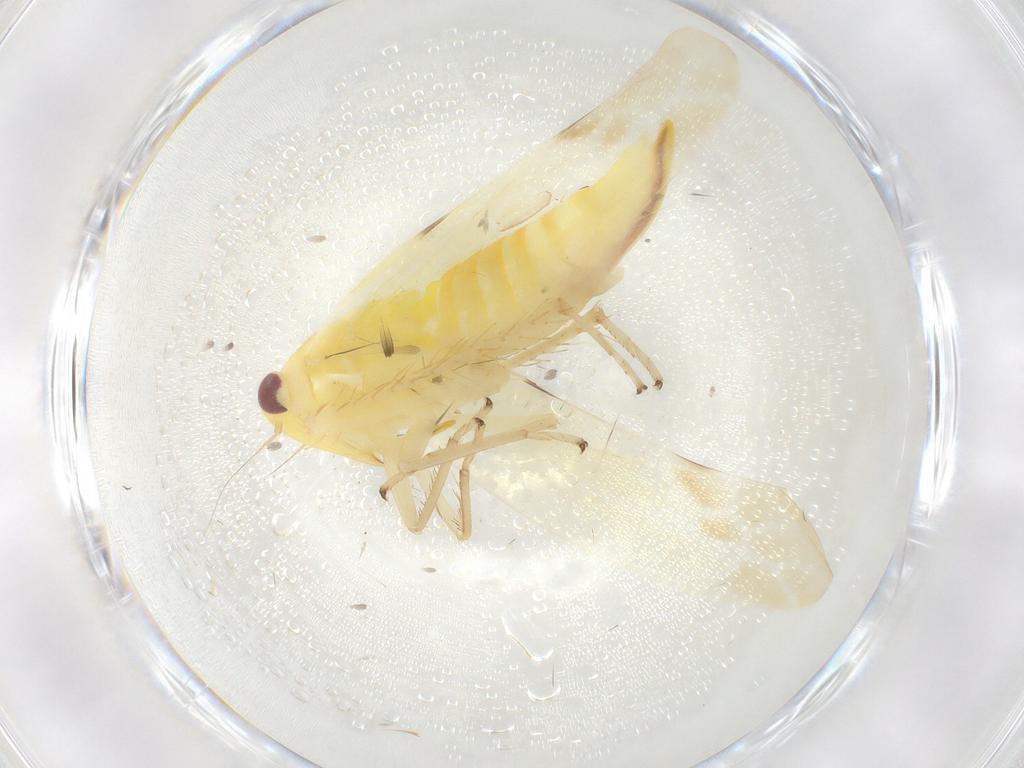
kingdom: Animalia
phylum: Arthropoda
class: Insecta
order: Hemiptera
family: Cicadellidae
